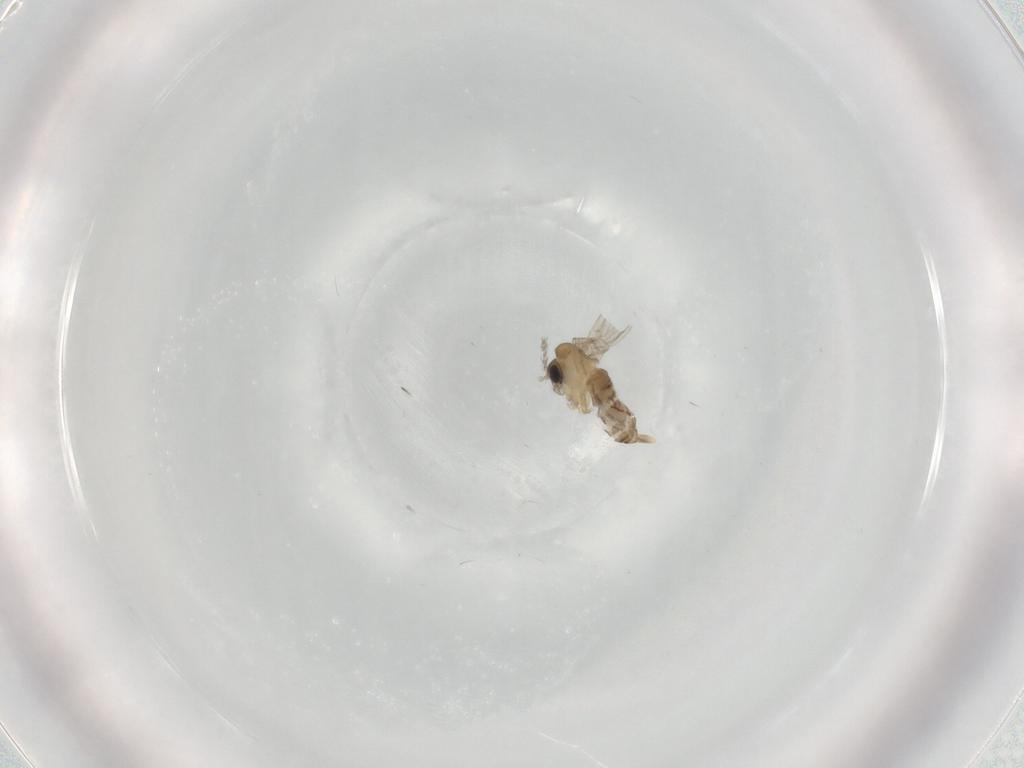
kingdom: Animalia
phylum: Arthropoda
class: Insecta
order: Diptera
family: Psychodidae
